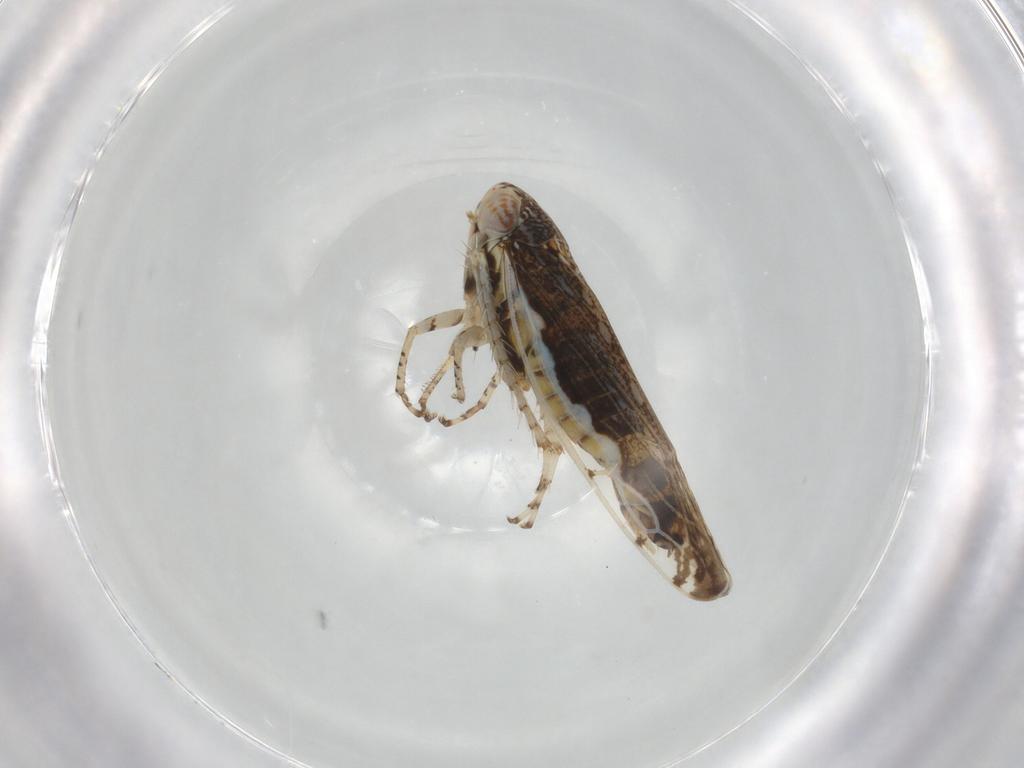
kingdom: Animalia
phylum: Arthropoda
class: Insecta
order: Hemiptera
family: Cicadellidae
